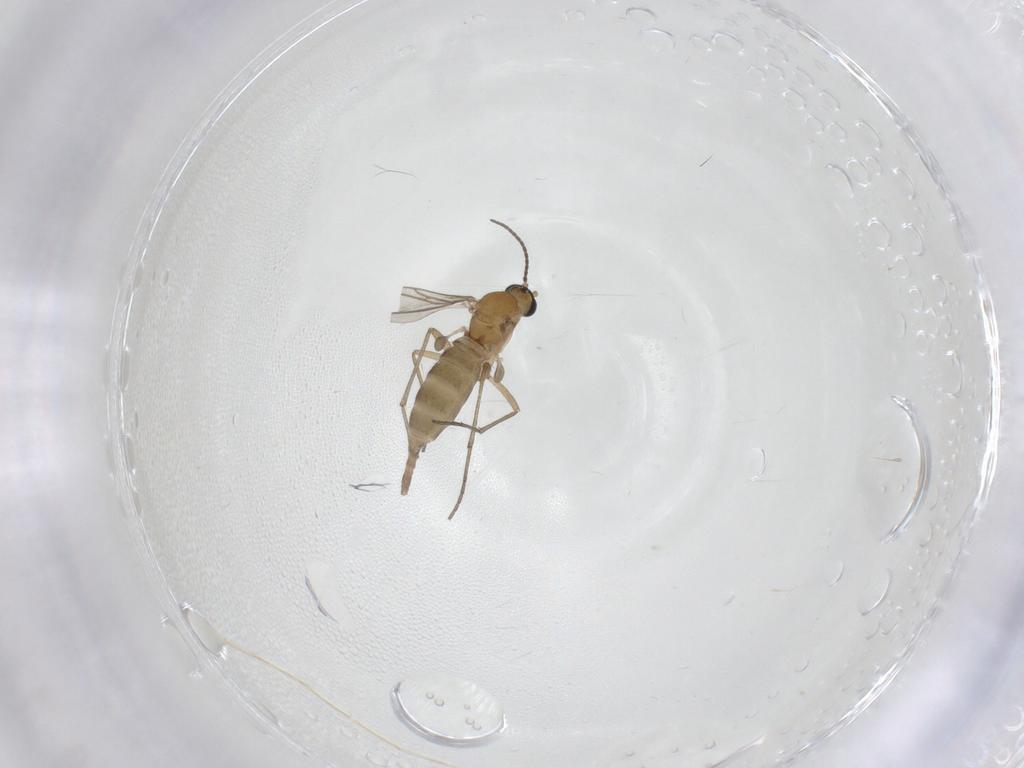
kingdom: Animalia
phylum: Arthropoda
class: Insecta
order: Diptera
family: Sciaridae
